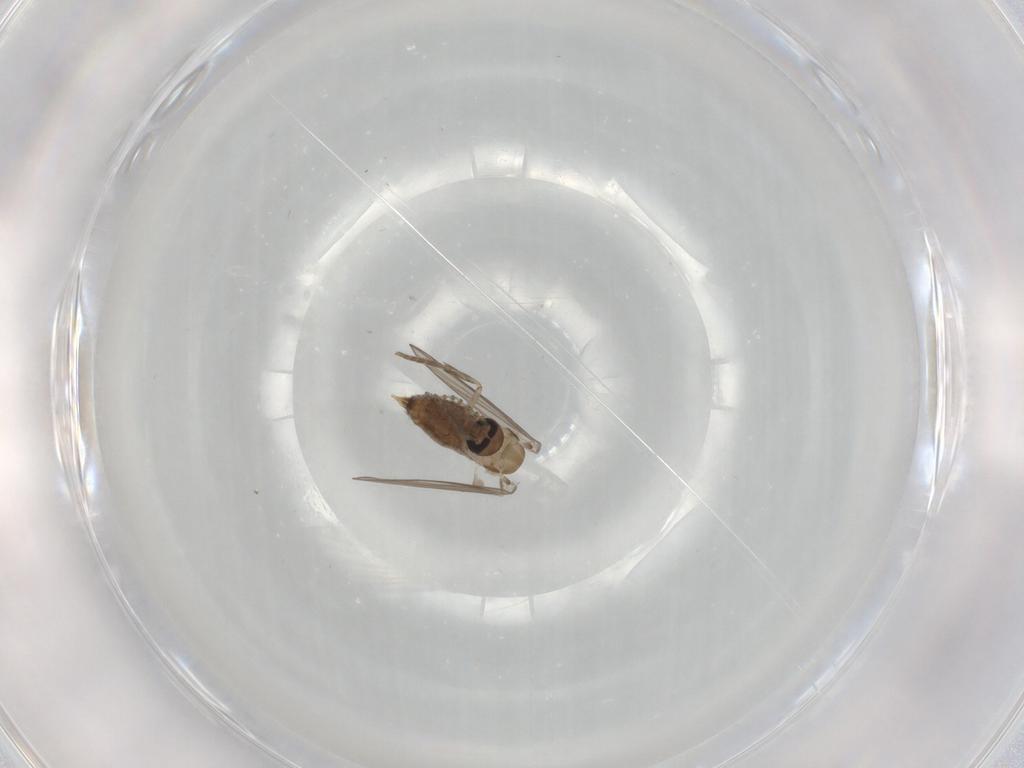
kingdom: Animalia
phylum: Arthropoda
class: Insecta
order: Diptera
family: Psychodidae
